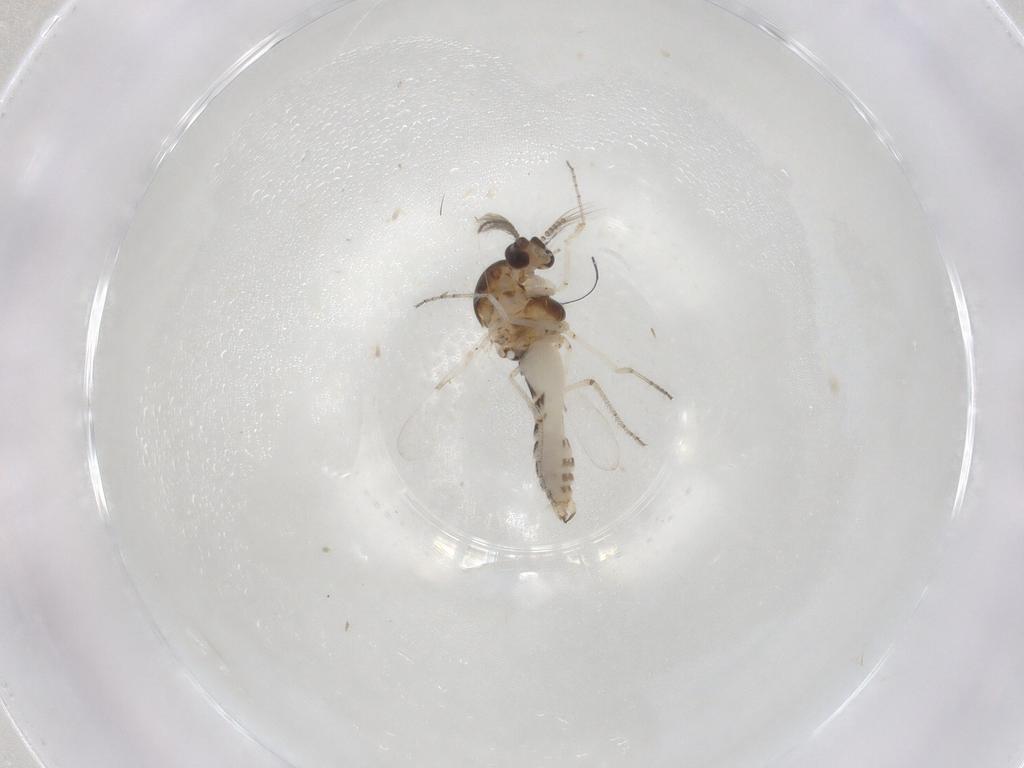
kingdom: Animalia
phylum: Arthropoda
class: Insecta
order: Diptera
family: Ceratopogonidae
